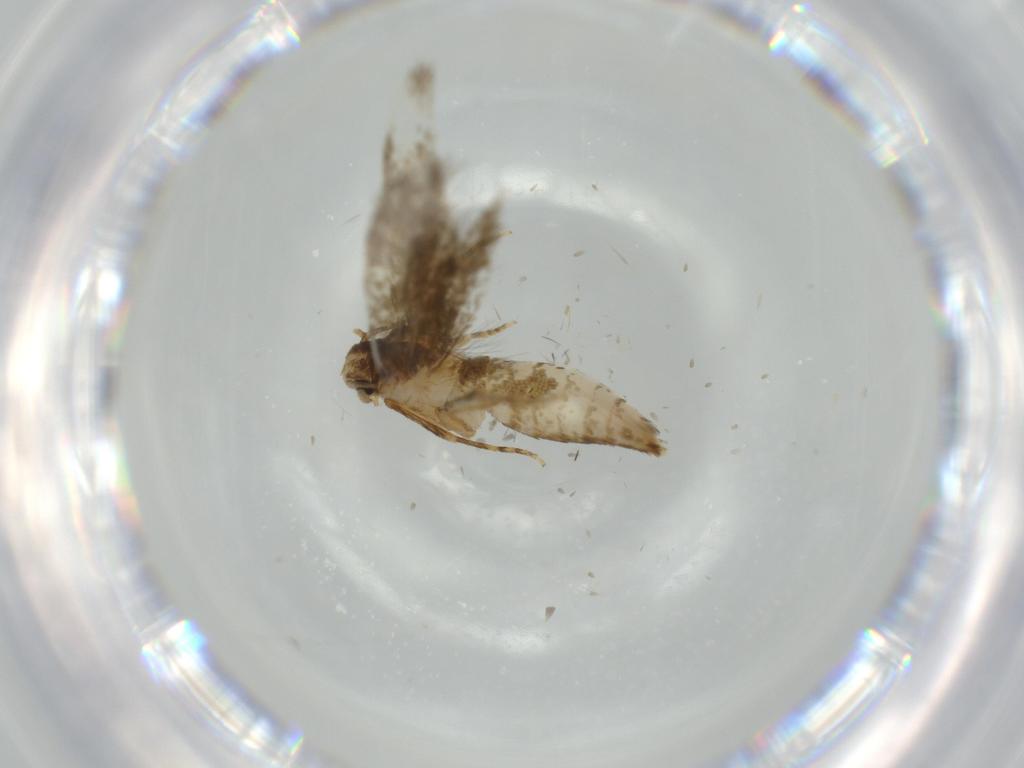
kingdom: Animalia
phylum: Arthropoda
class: Insecta
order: Lepidoptera
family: Tineidae
